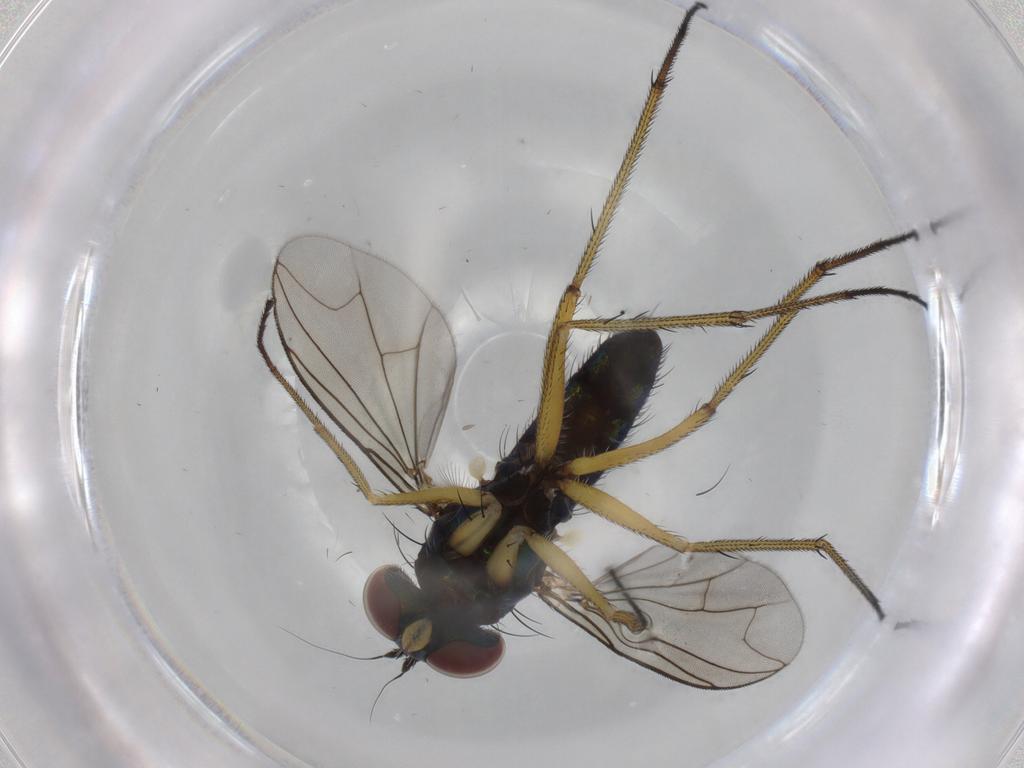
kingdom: Animalia
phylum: Arthropoda
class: Insecta
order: Diptera
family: Dolichopodidae
